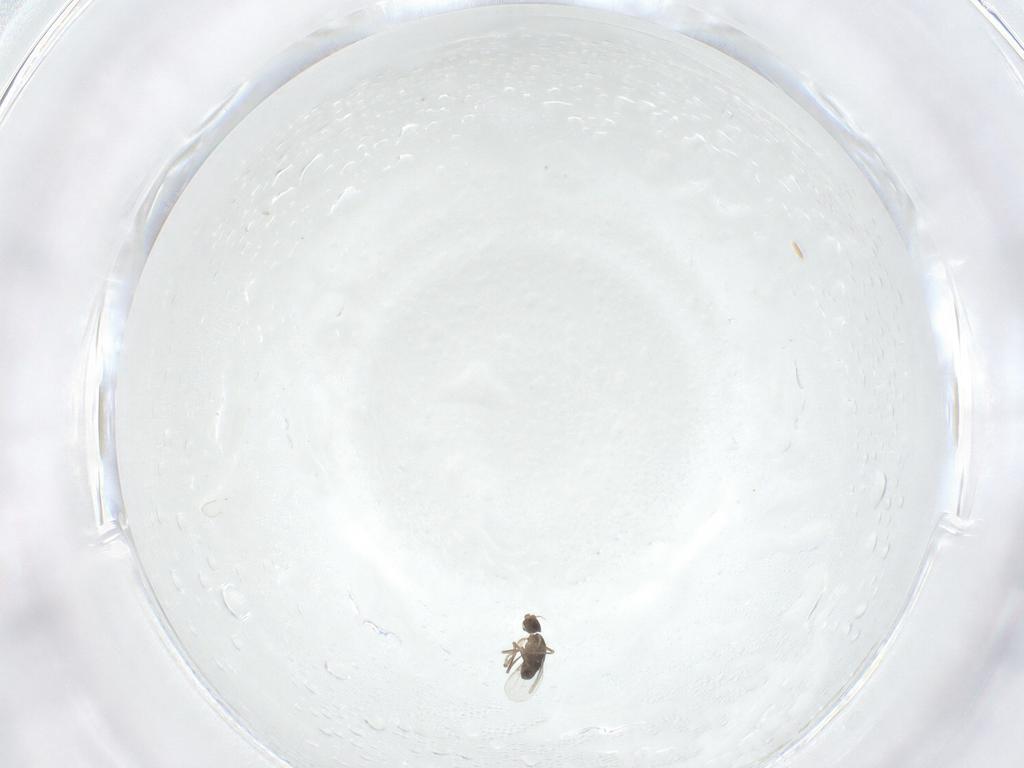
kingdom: Animalia
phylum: Arthropoda
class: Insecta
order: Diptera
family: Phoridae
